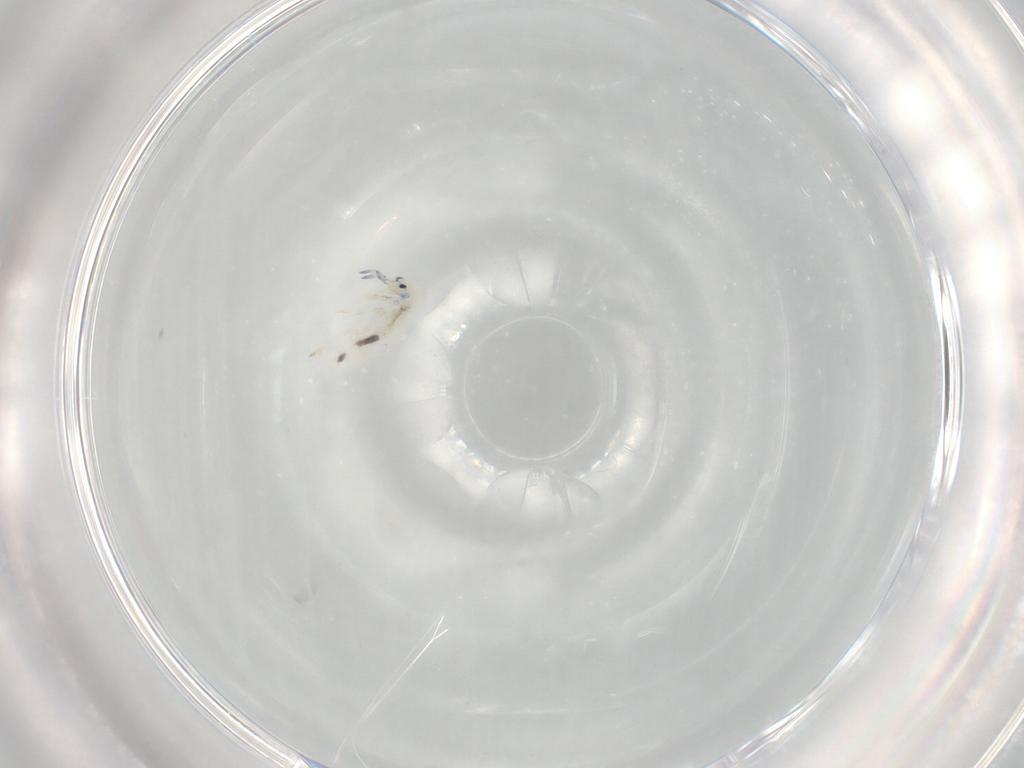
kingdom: Animalia
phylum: Arthropoda
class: Collembola
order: Entomobryomorpha
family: Entomobryidae
